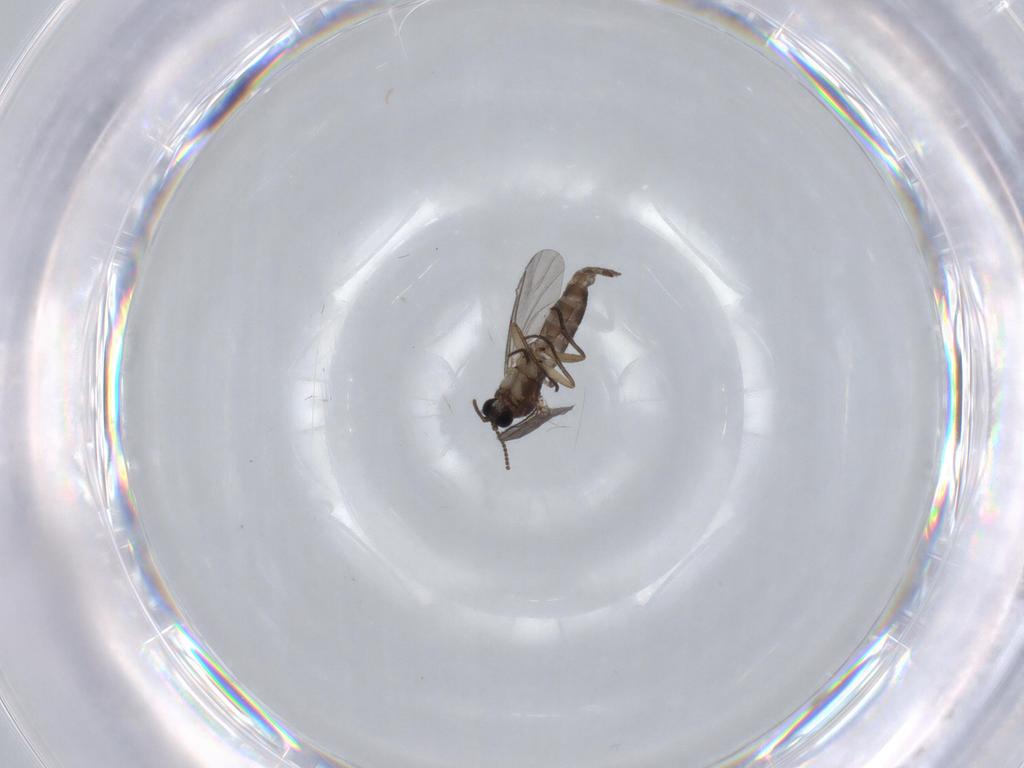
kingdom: Animalia
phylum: Arthropoda
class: Insecta
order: Diptera
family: Sciaridae
